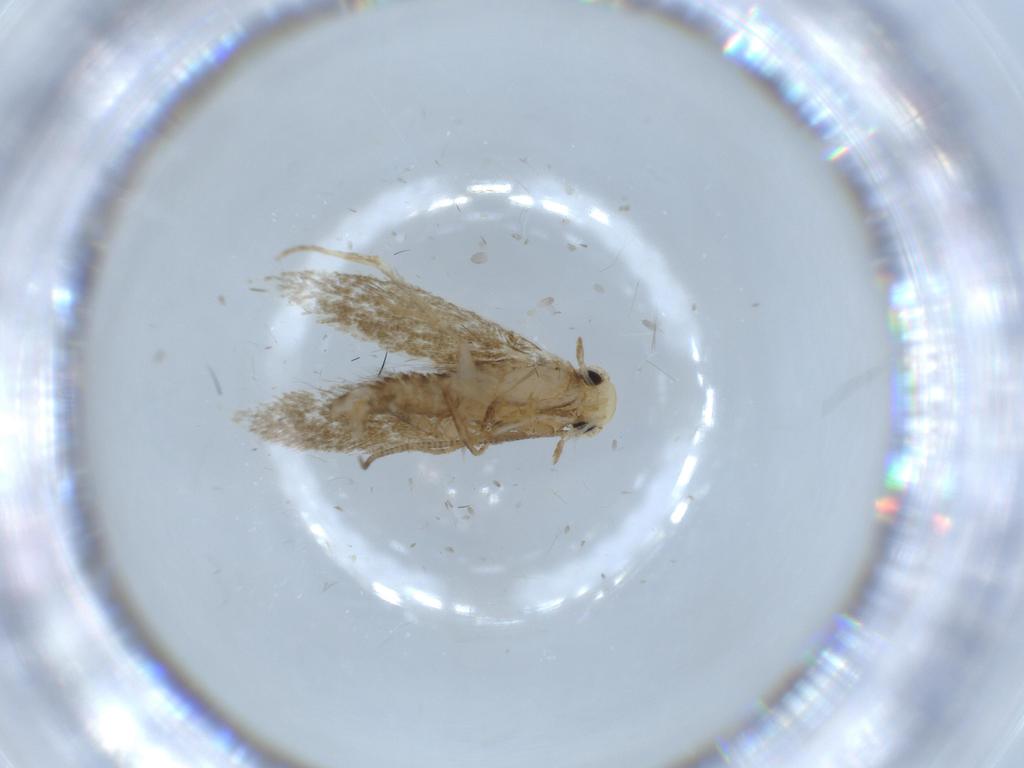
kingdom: Animalia
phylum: Arthropoda
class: Insecta
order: Lepidoptera
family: Tineidae
